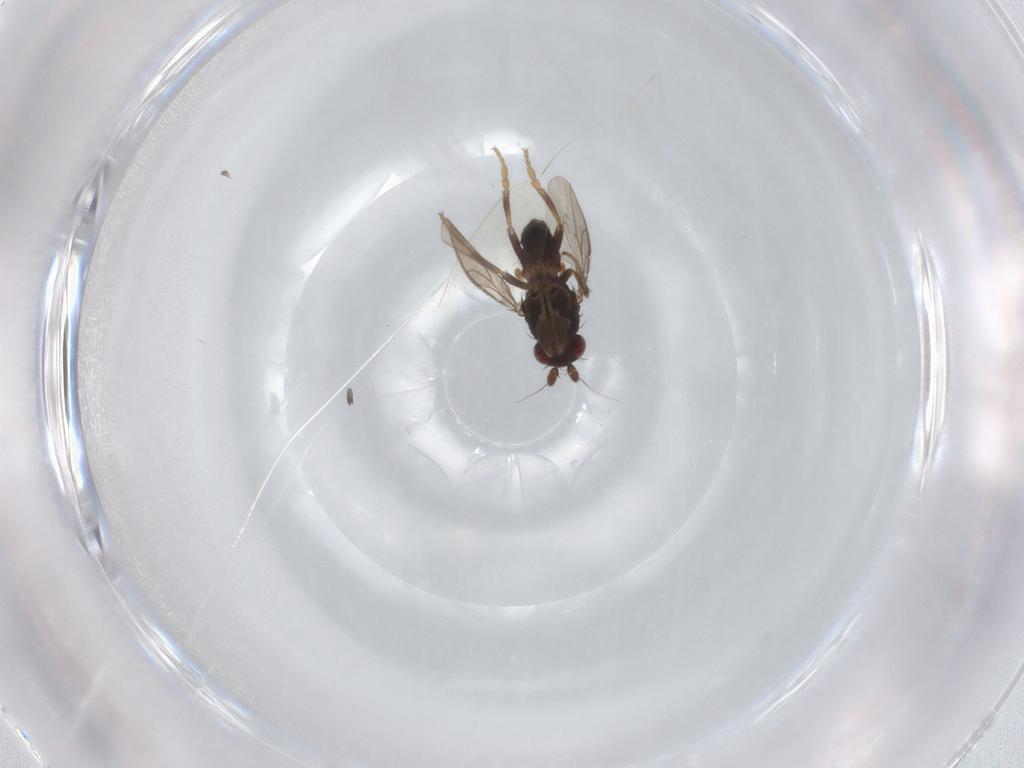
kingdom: Animalia
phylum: Arthropoda
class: Insecta
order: Diptera
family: Sphaeroceridae
